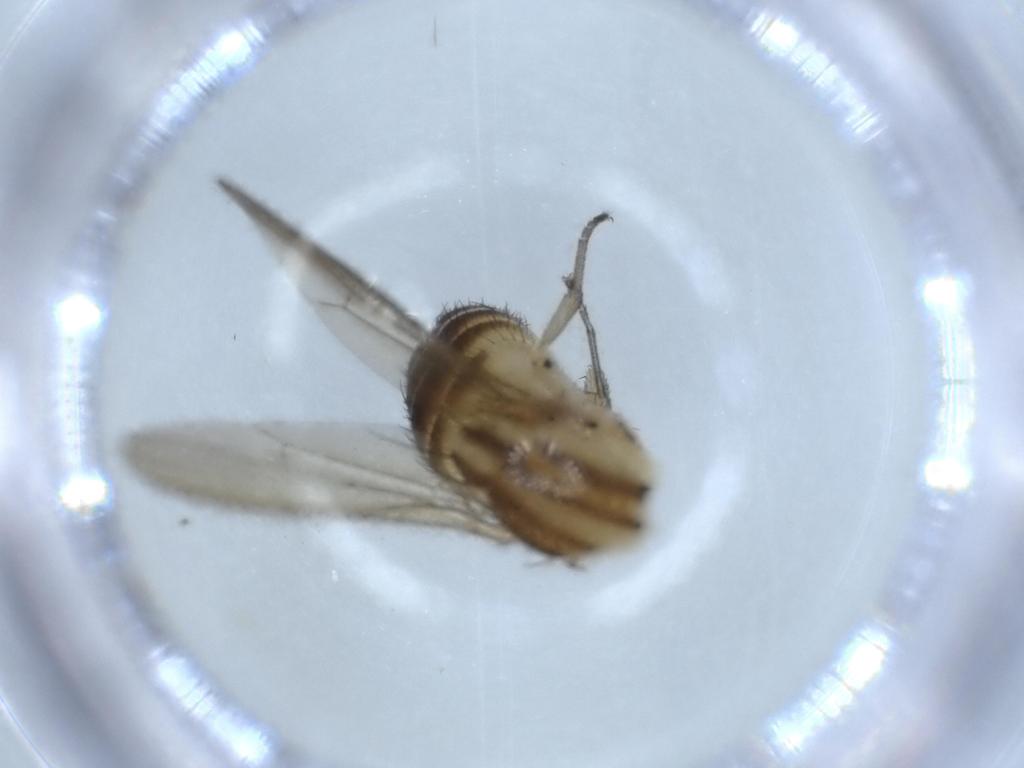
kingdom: Animalia
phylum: Arthropoda
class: Insecta
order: Diptera
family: Lauxaniidae
